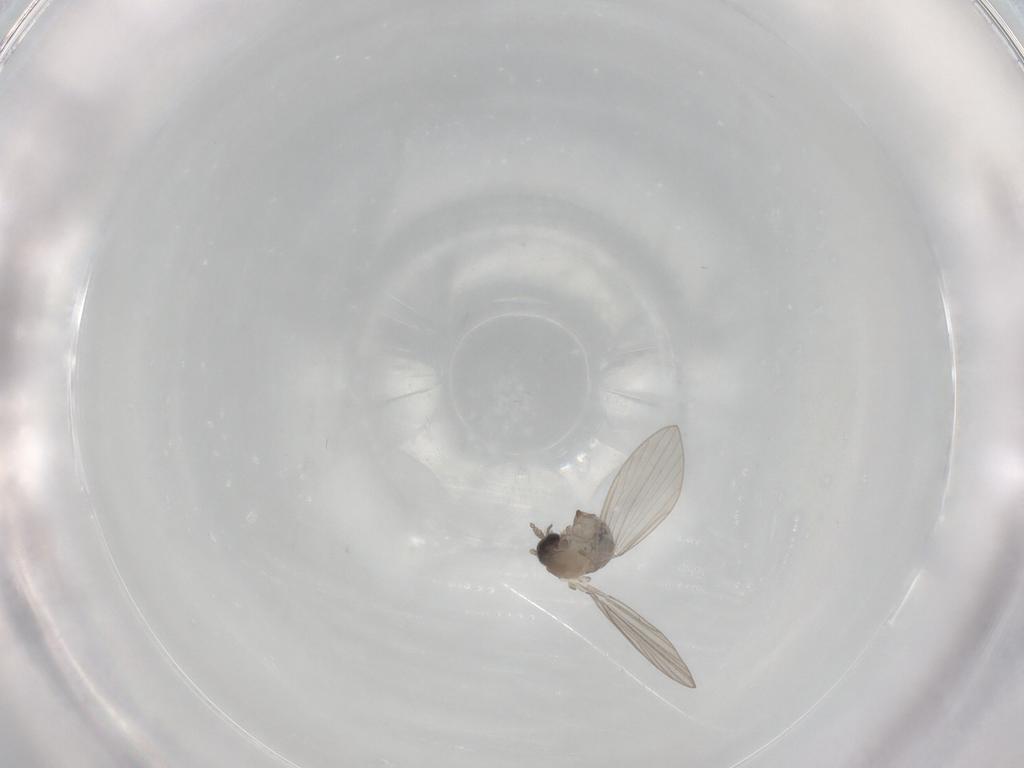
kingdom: Animalia
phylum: Arthropoda
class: Insecta
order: Diptera
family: Psychodidae
